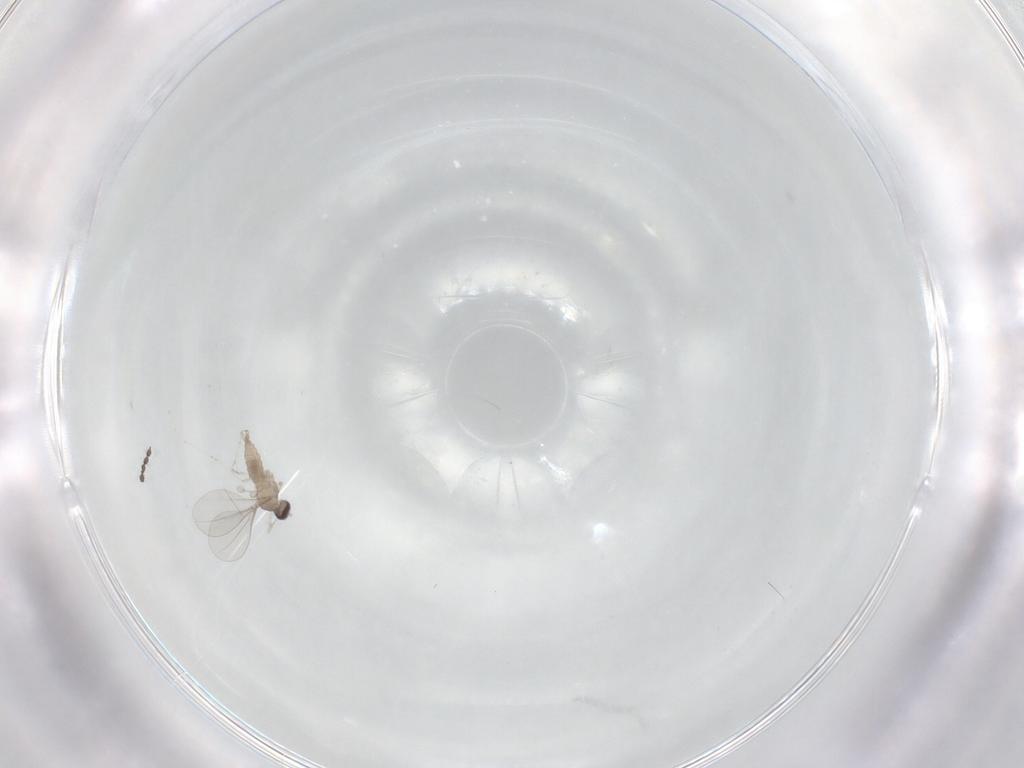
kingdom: Animalia
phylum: Arthropoda
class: Insecta
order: Diptera
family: Cecidomyiidae
